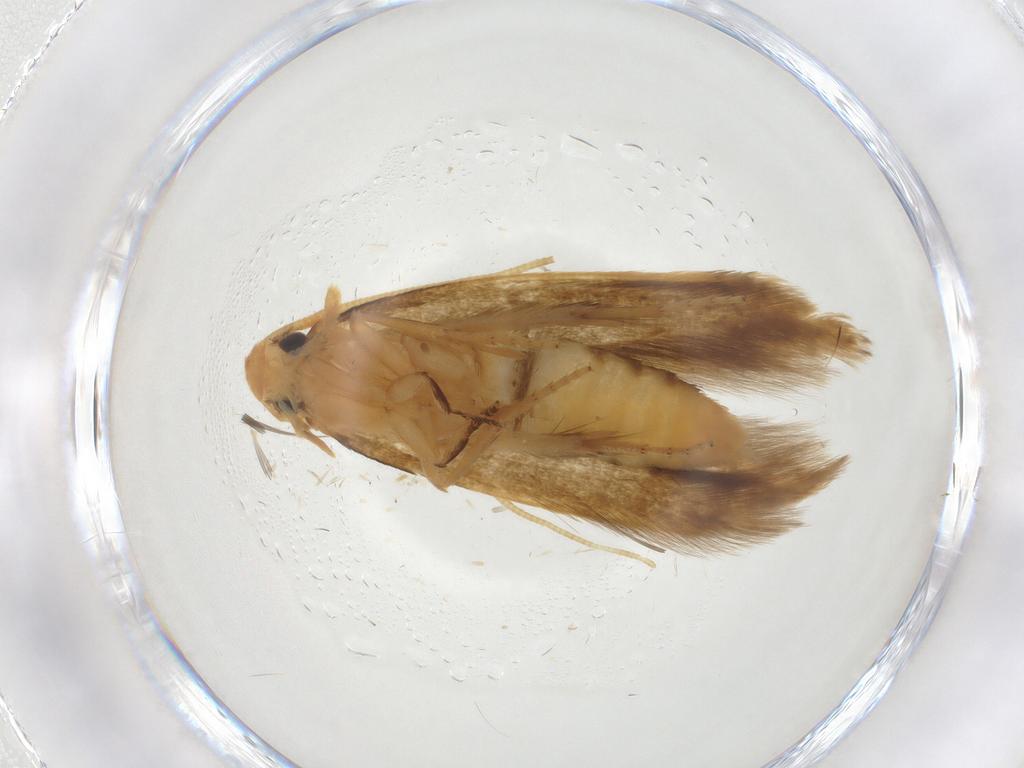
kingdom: Animalia
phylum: Arthropoda
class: Insecta
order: Lepidoptera
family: Tineidae
